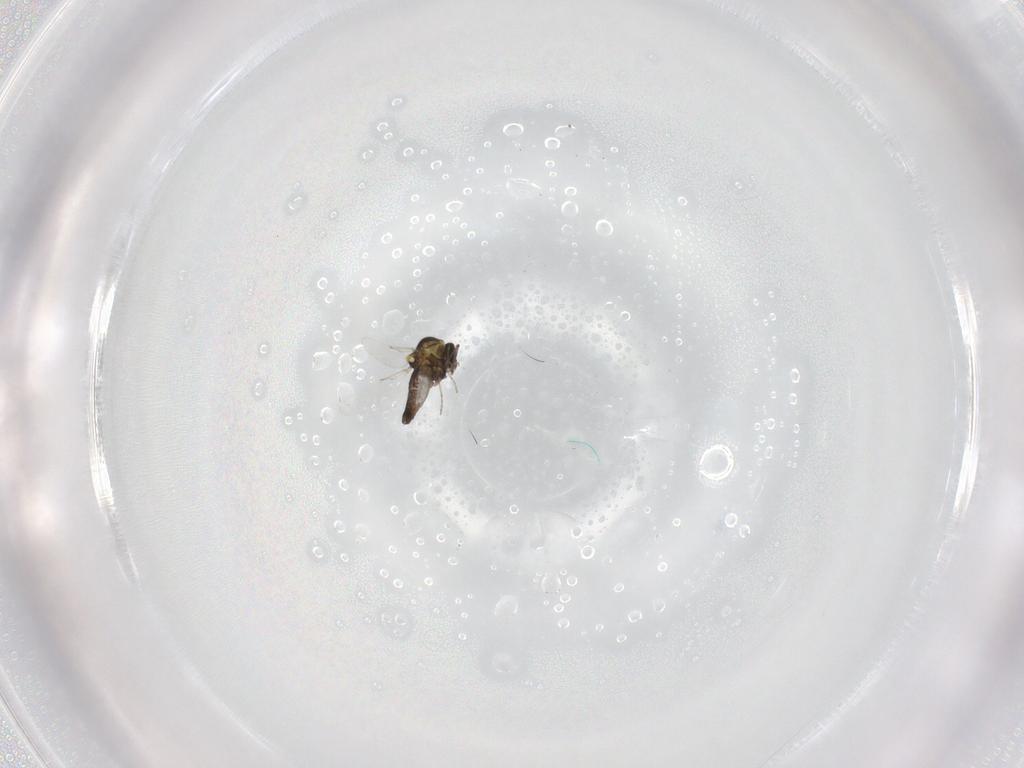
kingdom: Animalia
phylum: Arthropoda
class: Insecta
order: Diptera
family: Ceratopogonidae
